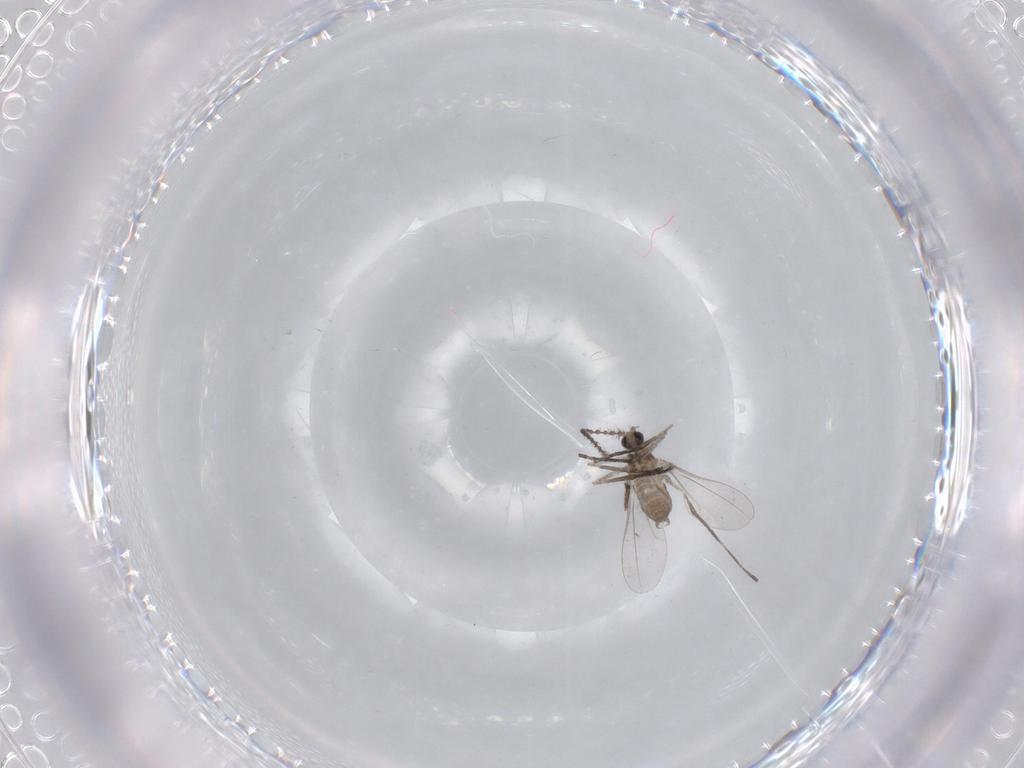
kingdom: Animalia
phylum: Arthropoda
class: Insecta
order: Diptera
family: Cecidomyiidae
